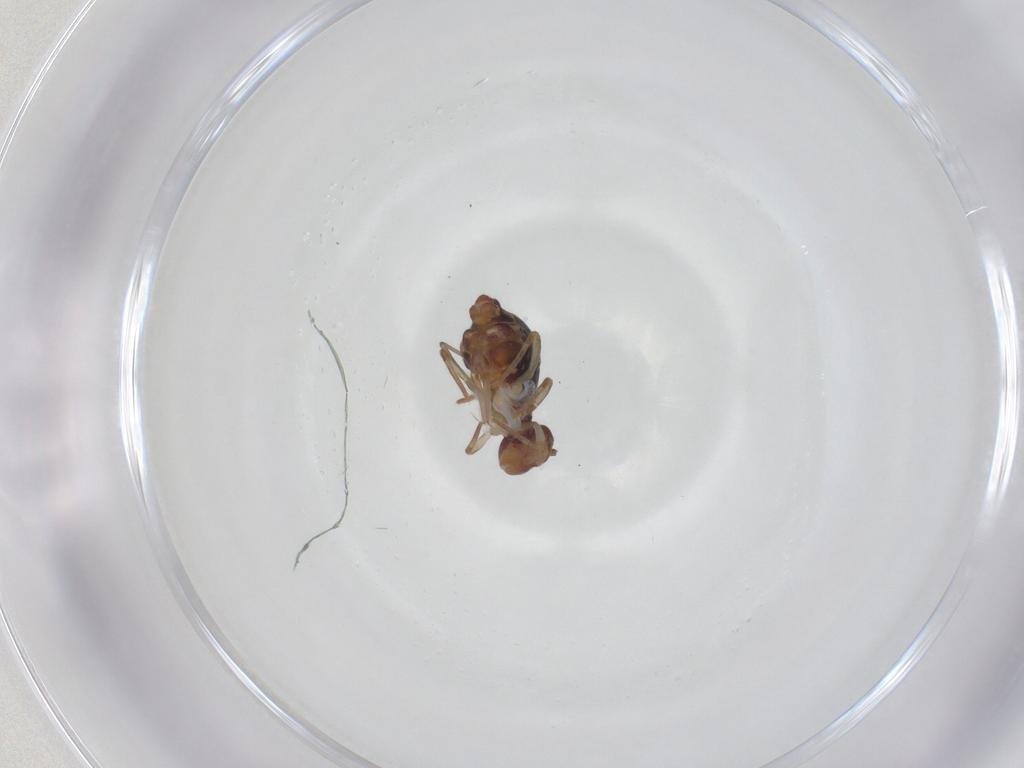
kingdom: Animalia
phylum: Arthropoda
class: Collembola
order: Symphypleona
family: Dicyrtomidae
